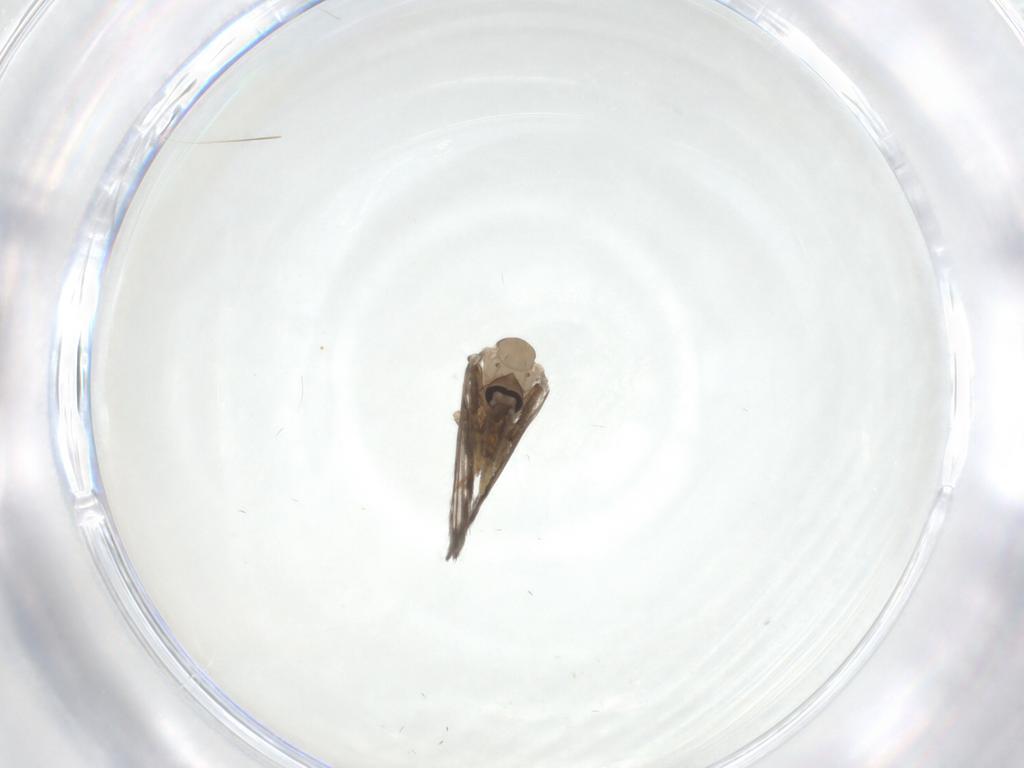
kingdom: Animalia
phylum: Arthropoda
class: Insecta
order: Diptera
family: Psychodidae
